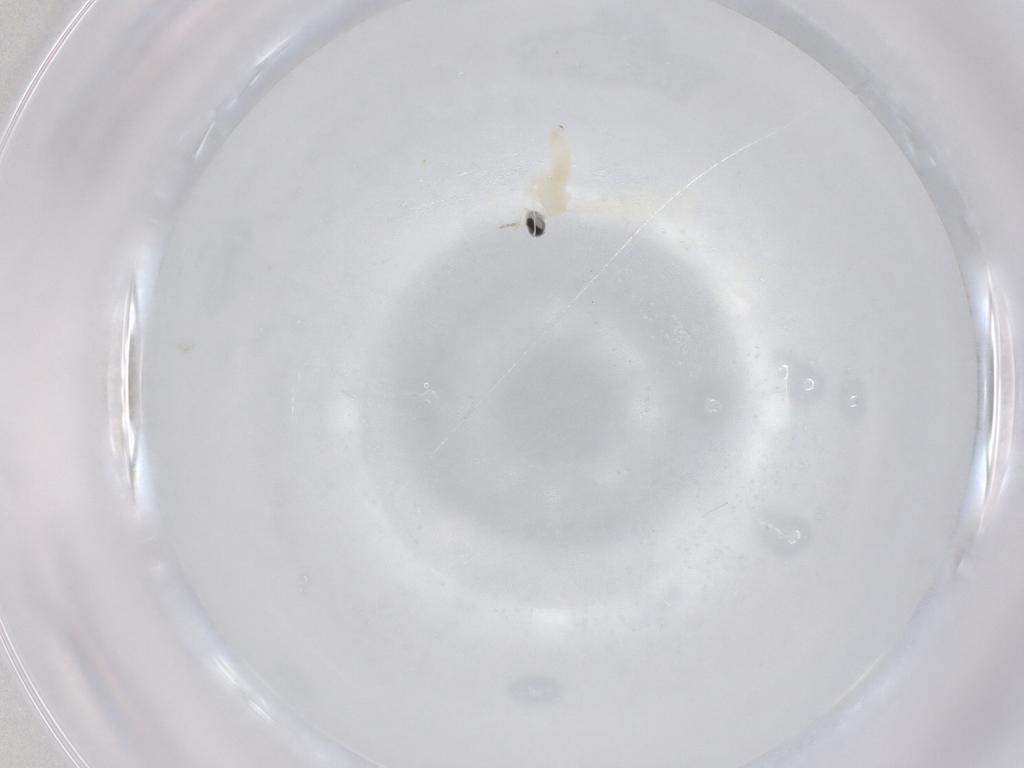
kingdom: Animalia
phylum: Arthropoda
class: Insecta
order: Diptera
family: Cecidomyiidae
